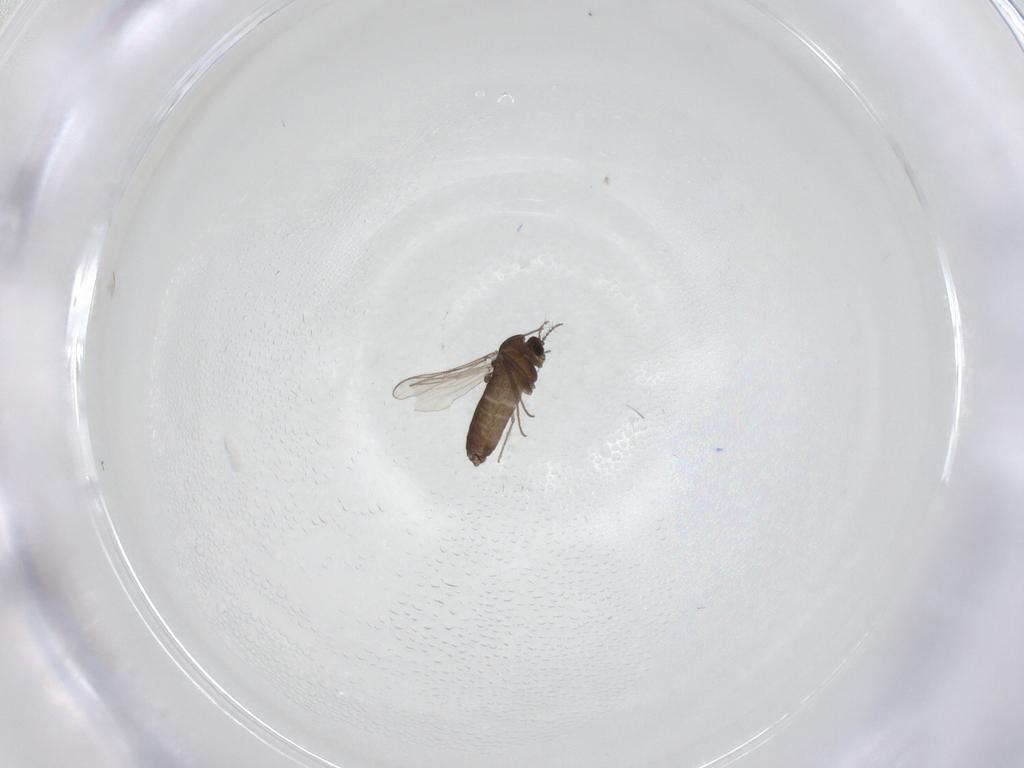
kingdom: Animalia
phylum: Arthropoda
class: Insecta
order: Diptera
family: Chironomidae
